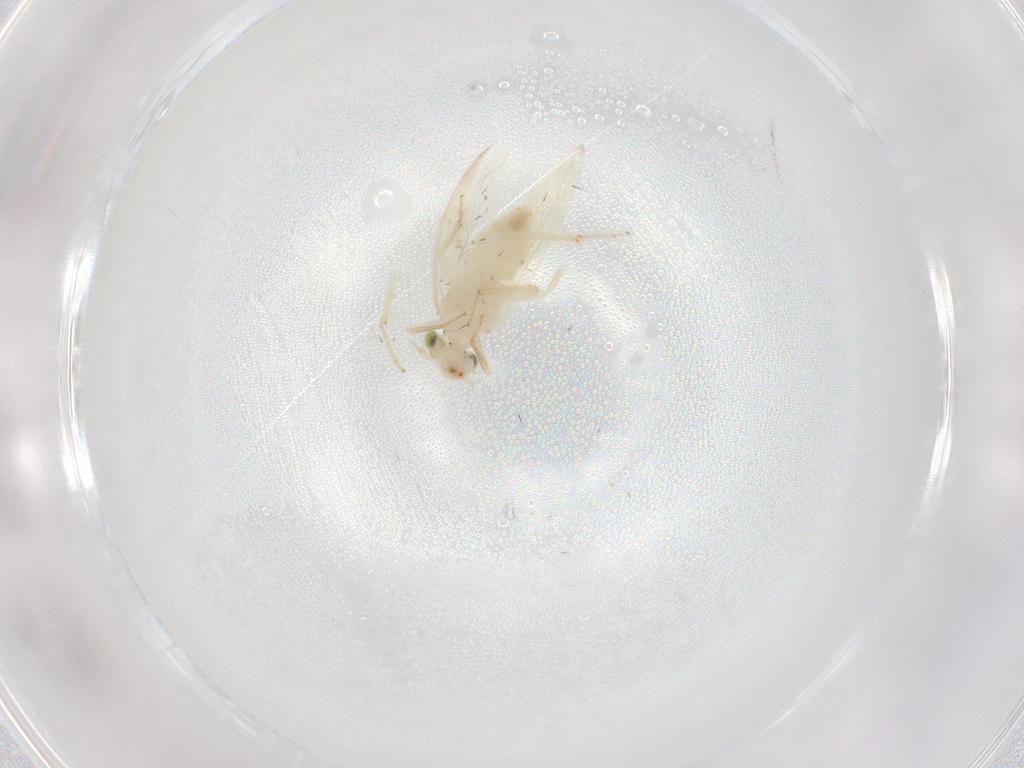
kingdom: Animalia
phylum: Arthropoda
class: Insecta
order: Psocodea
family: Lepidopsocidae
